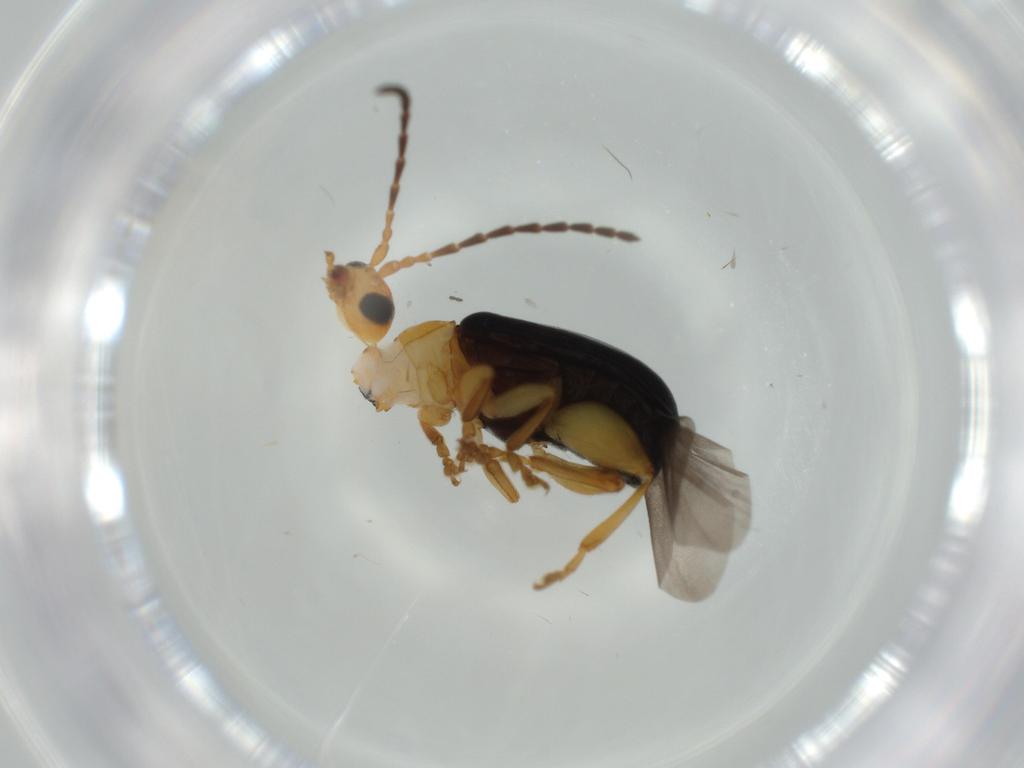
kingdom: Animalia
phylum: Arthropoda
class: Insecta
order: Coleoptera
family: Carabidae
